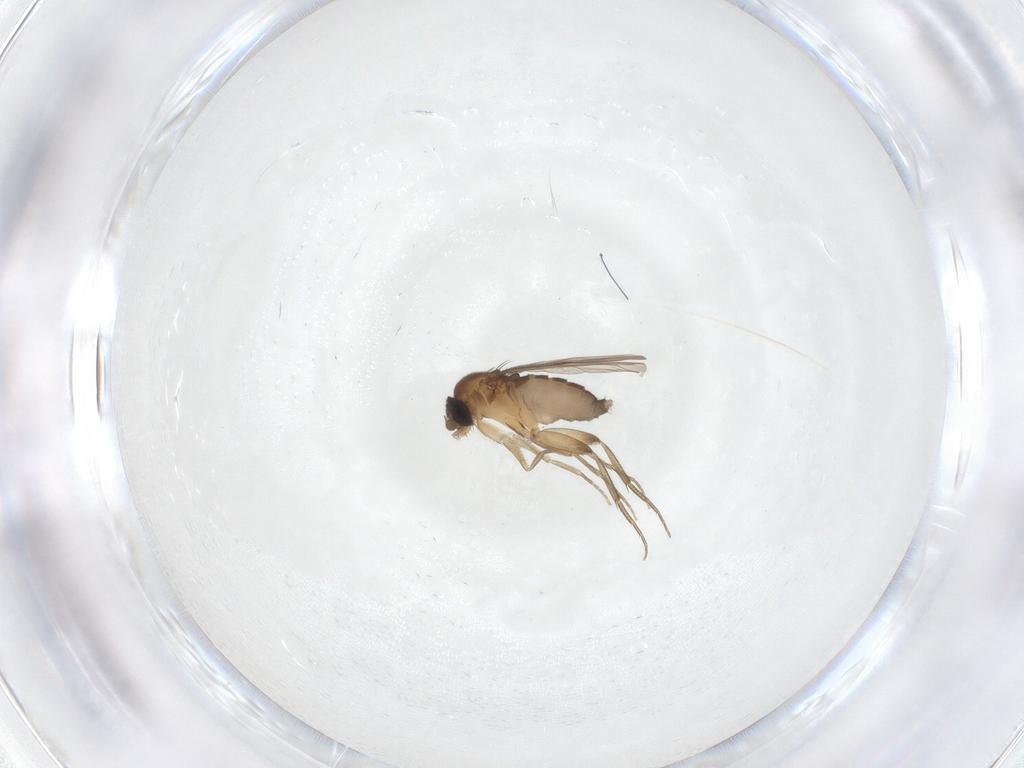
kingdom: Animalia
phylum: Arthropoda
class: Insecta
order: Diptera
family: Phoridae
